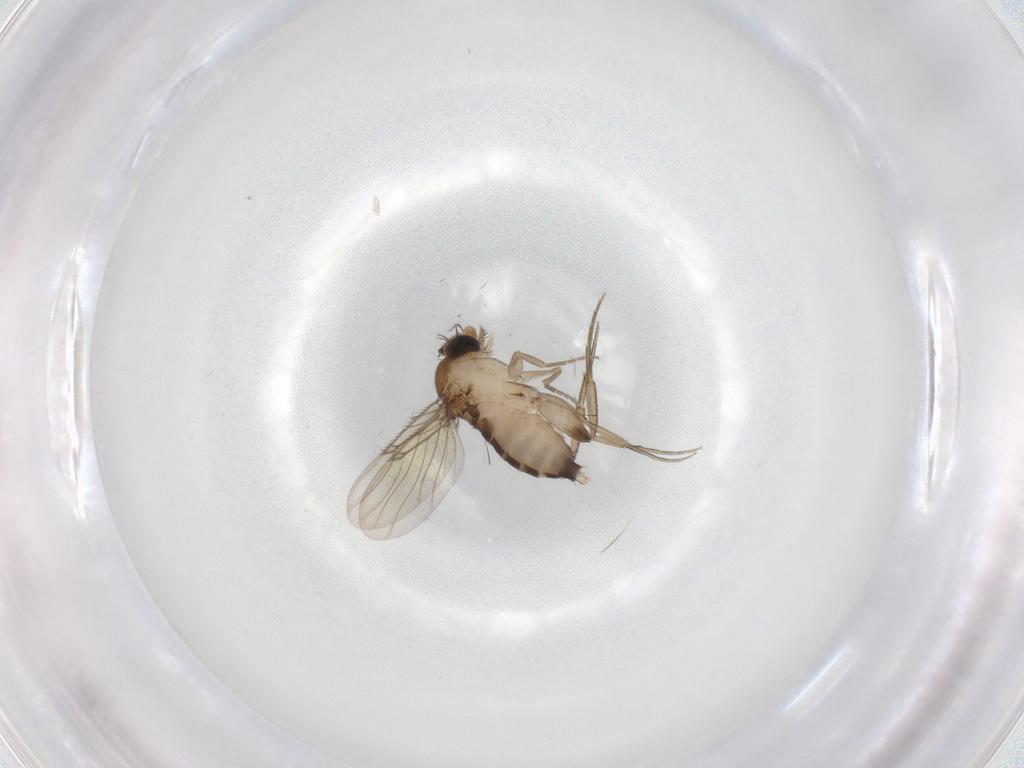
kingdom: Animalia
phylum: Arthropoda
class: Insecta
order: Diptera
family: Phoridae
